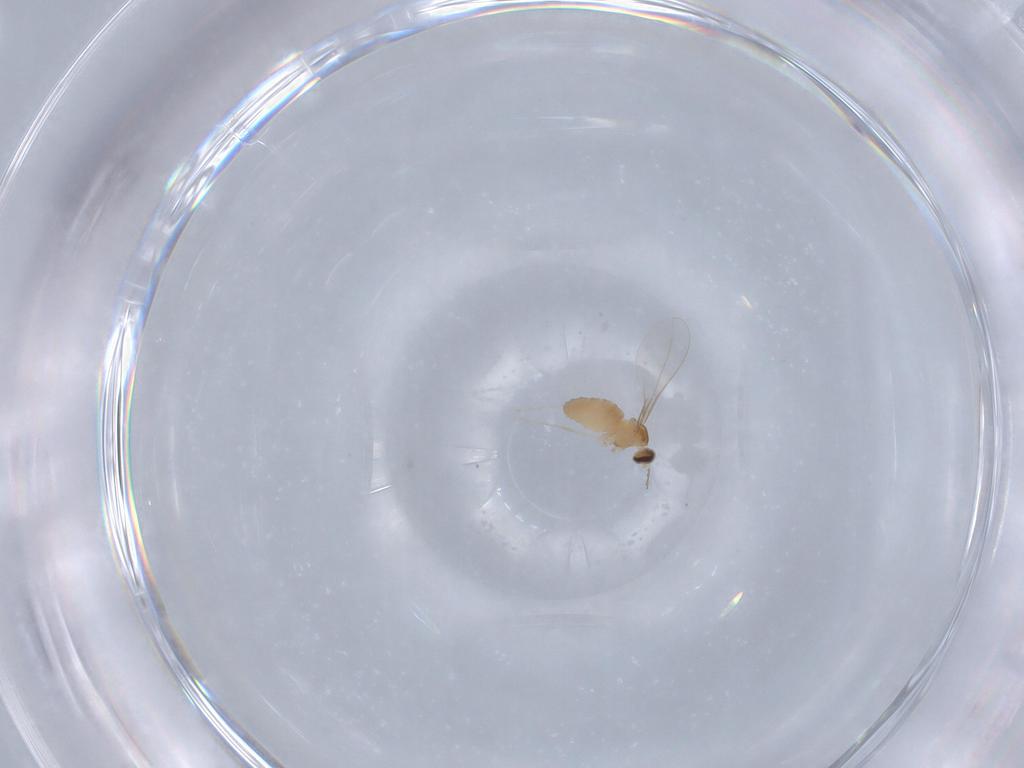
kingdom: Animalia
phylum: Arthropoda
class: Insecta
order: Diptera
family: Cecidomyiidae
